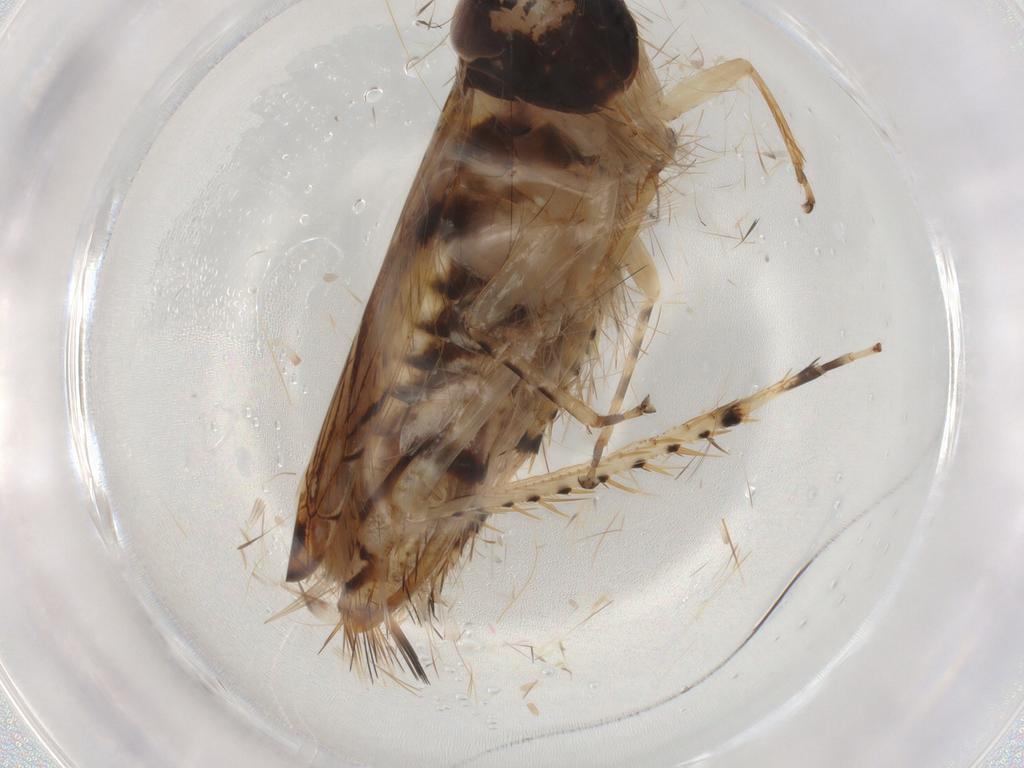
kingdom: Animalia
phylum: Arthropoda
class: Insecta
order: Hemiptera
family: Cicadellidae
